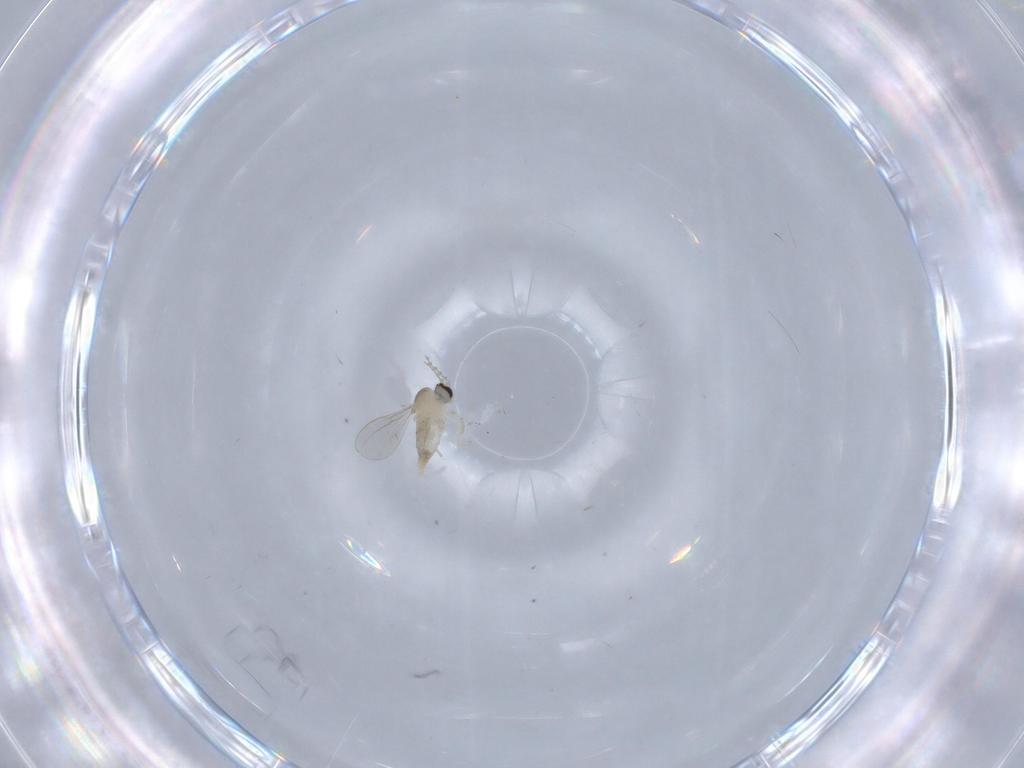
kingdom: Animalia
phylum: Arthropoda
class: Insecta
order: Diptera
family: Cecidomyiidae
